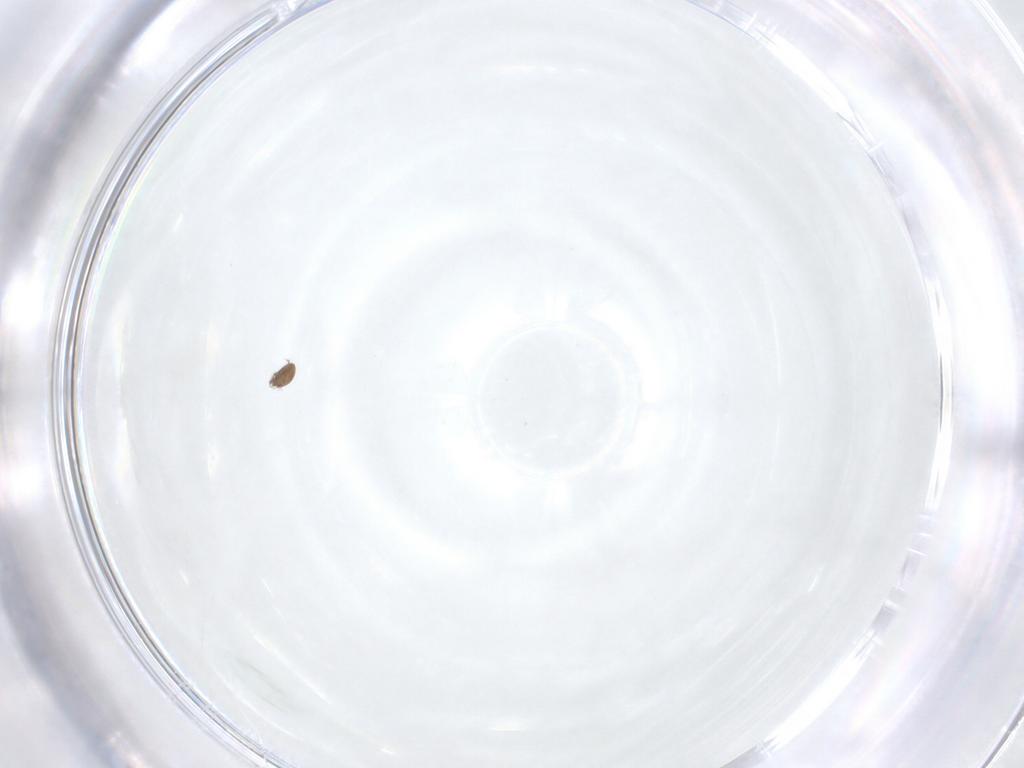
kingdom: Animalia
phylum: Arthropoda
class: Arachnida
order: Sarcoptiformes
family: Oribatellidae
